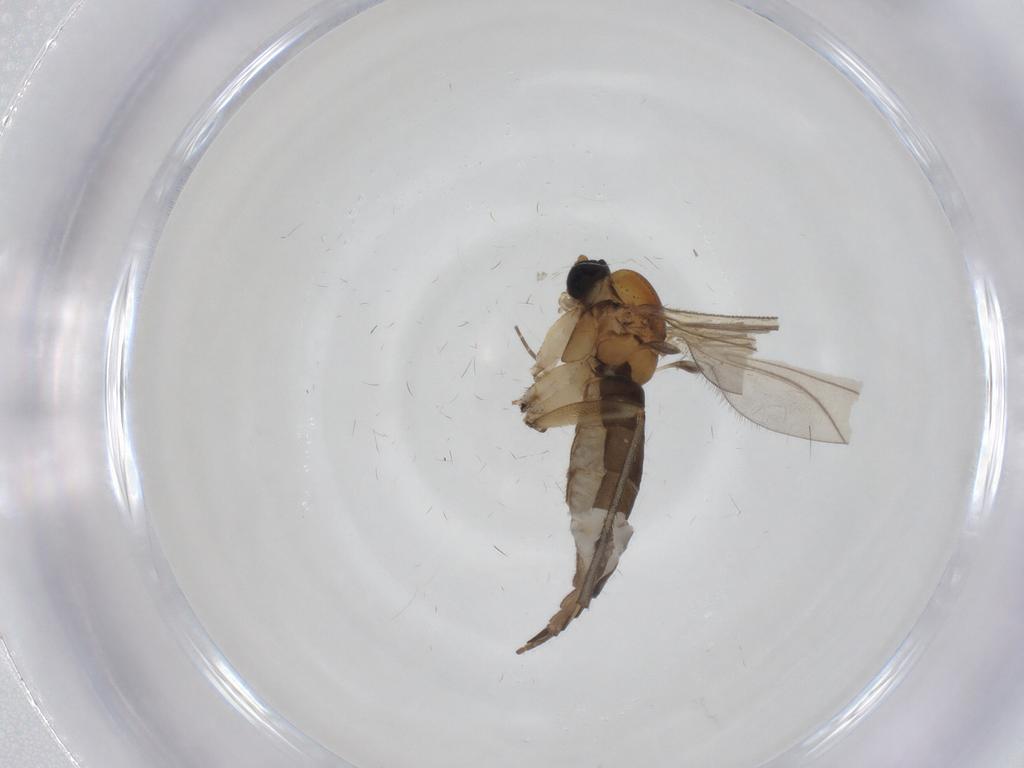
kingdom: Animalia
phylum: Arthropoda
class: Insecta
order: Diptera
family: Sciaridae
